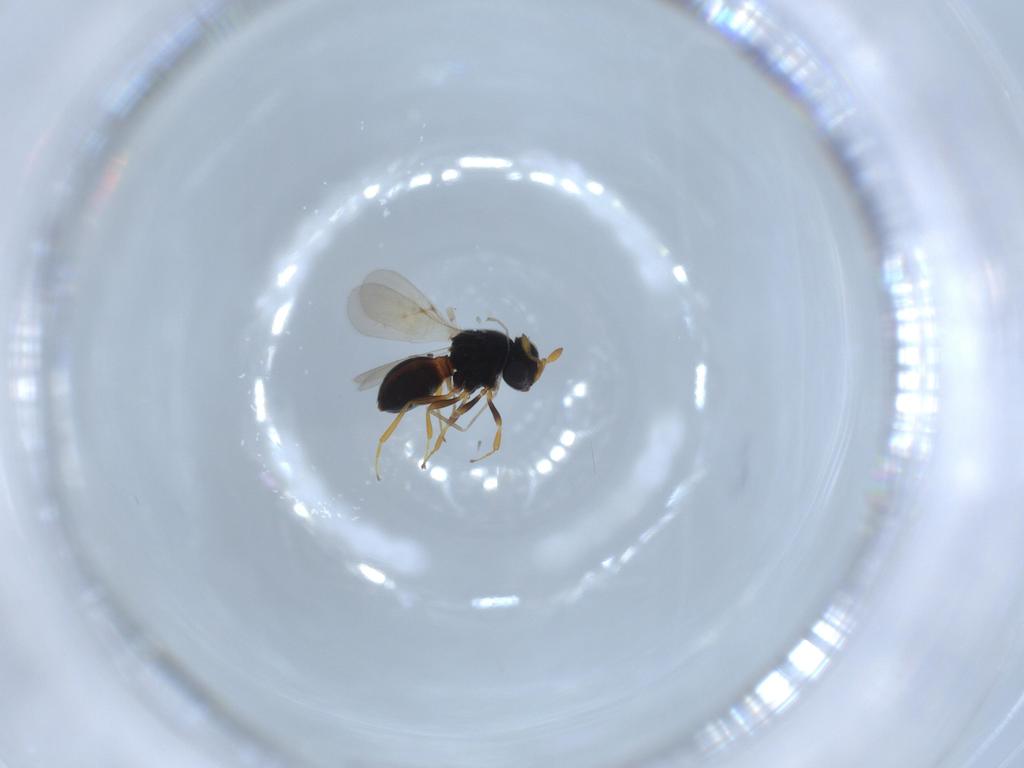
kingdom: Animalia
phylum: Arthropoda
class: Insecta
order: Hymenoptera
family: Scelionidae
